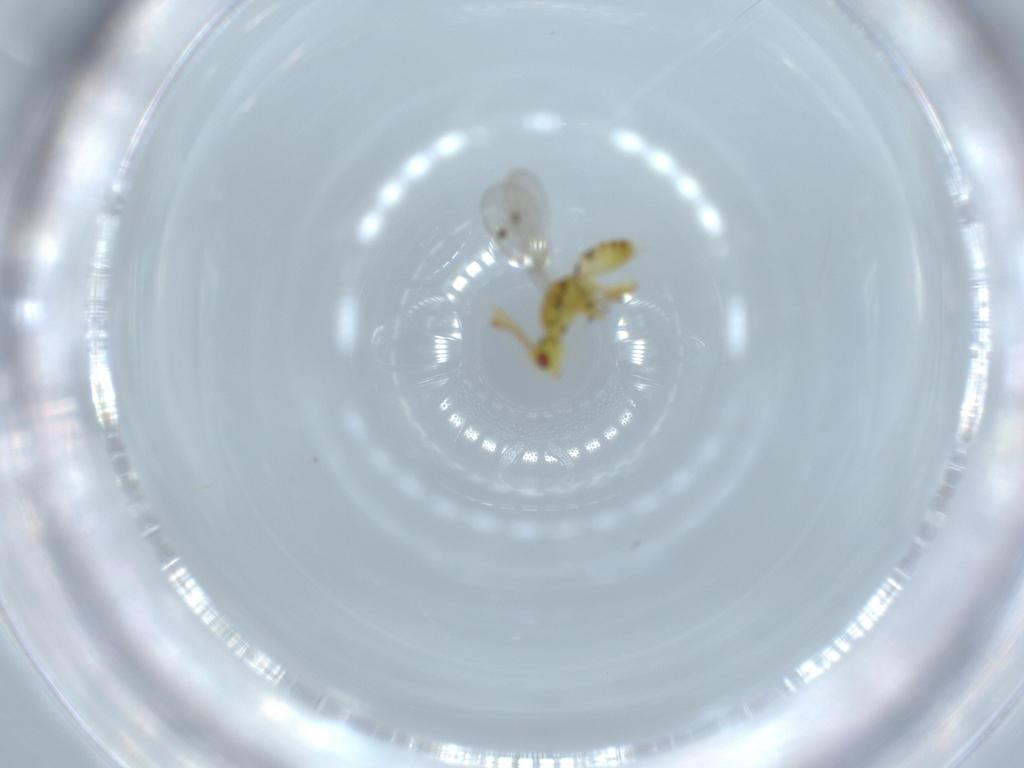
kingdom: Animalia
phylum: Arthropoda
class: Insecta
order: Hymenoptera
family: Megastigmidae
